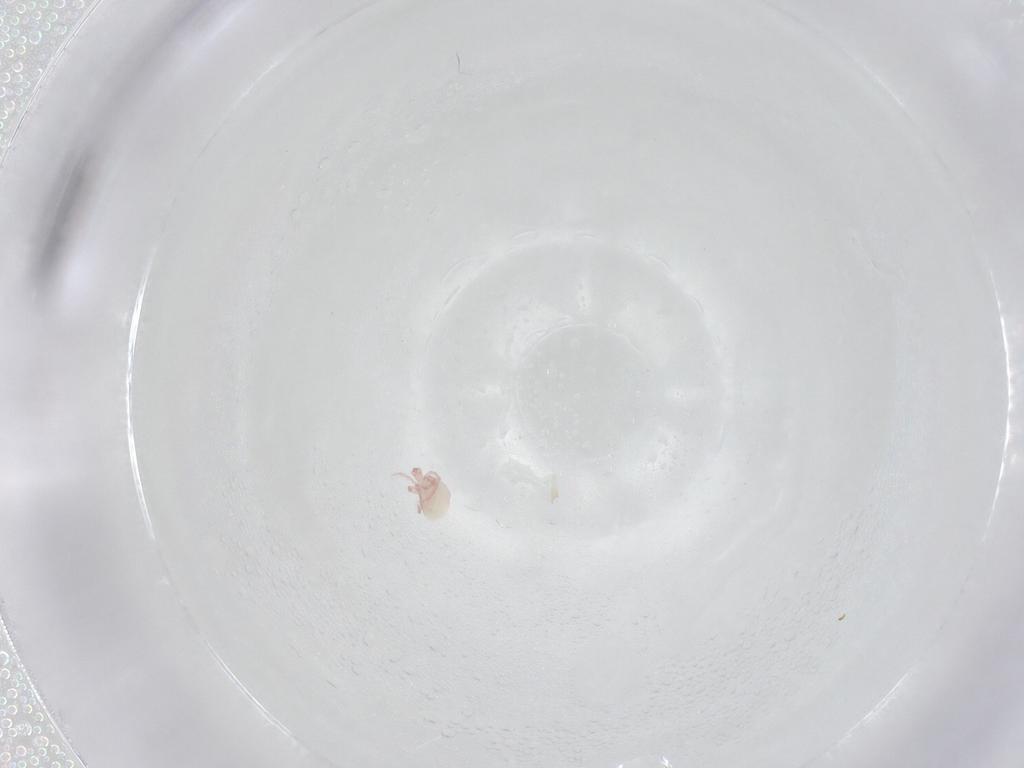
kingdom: Animalia
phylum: Arthropoda
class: Arachnida
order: Trombidiformes
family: Pionidae
